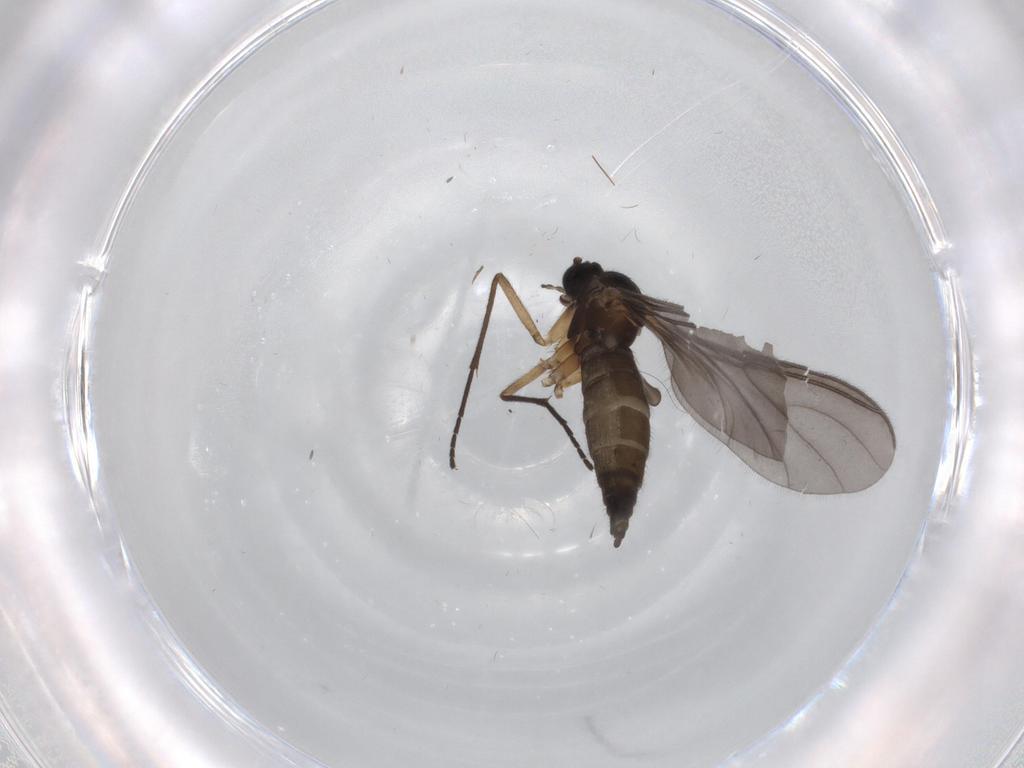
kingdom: Animalia
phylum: Arthropoda
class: Insecta
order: Diptera
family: Sciaridae
